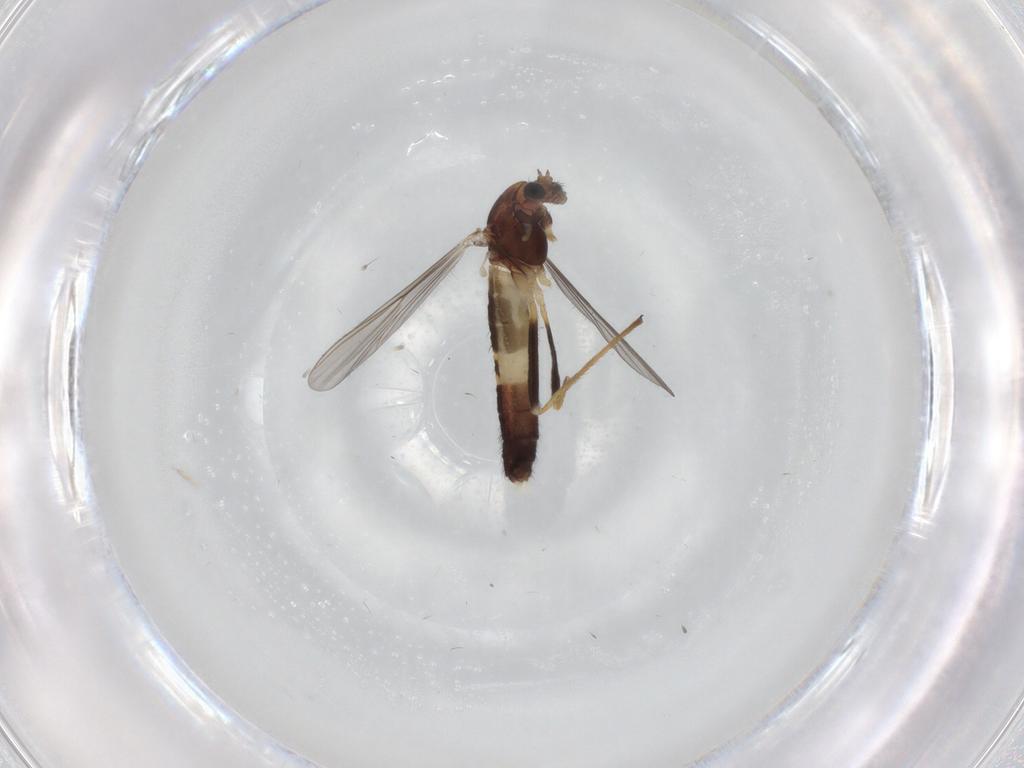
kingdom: Animalia
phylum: Arthropoda
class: Insecta
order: Diptera
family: Chironomidae
